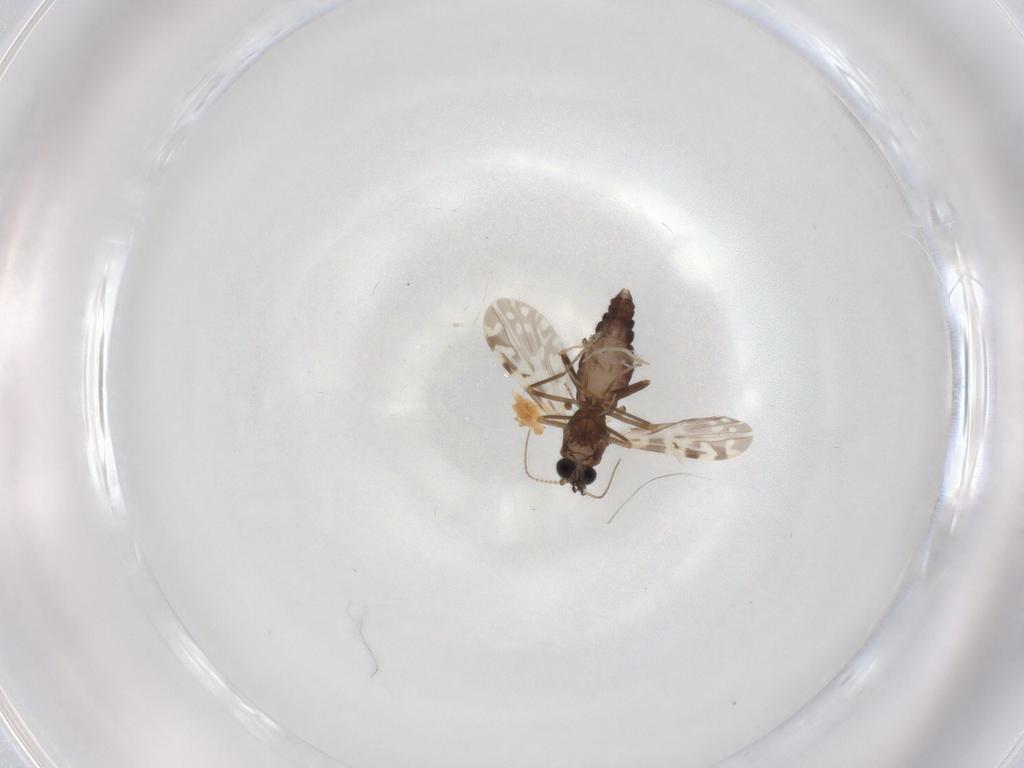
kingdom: Animalia
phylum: Arthropoda
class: Insecta
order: Diptera
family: Ceratopogonidae
